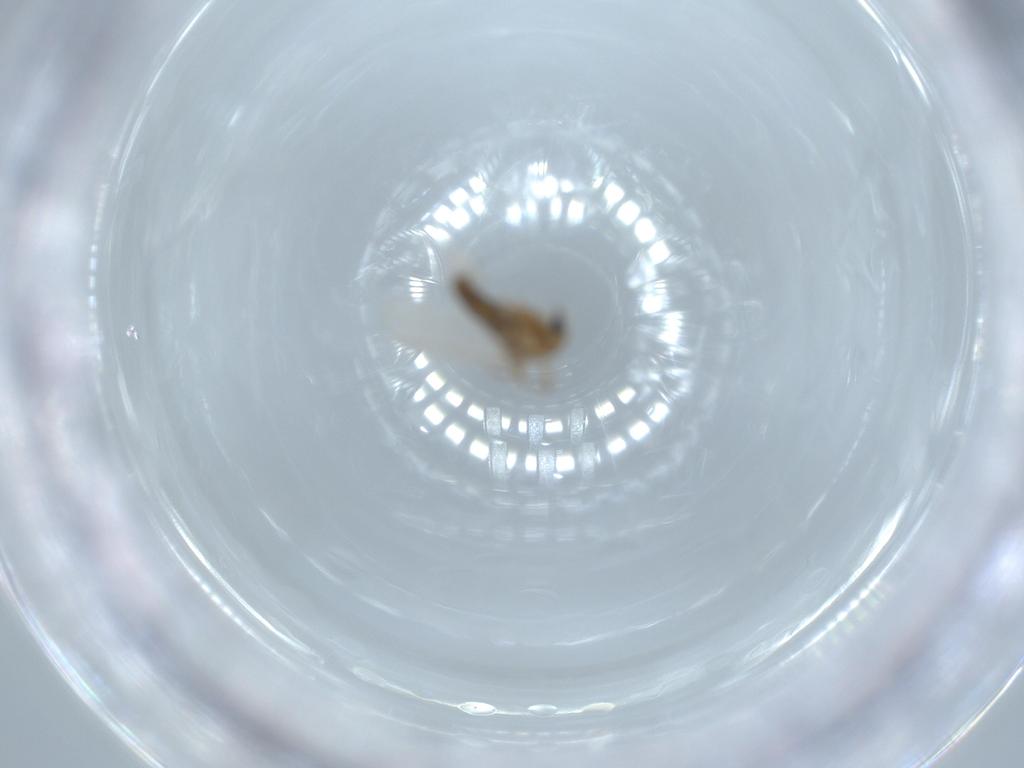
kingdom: Animalia
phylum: Arthropoda
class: Insecta
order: Diptera
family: Chironomidae
